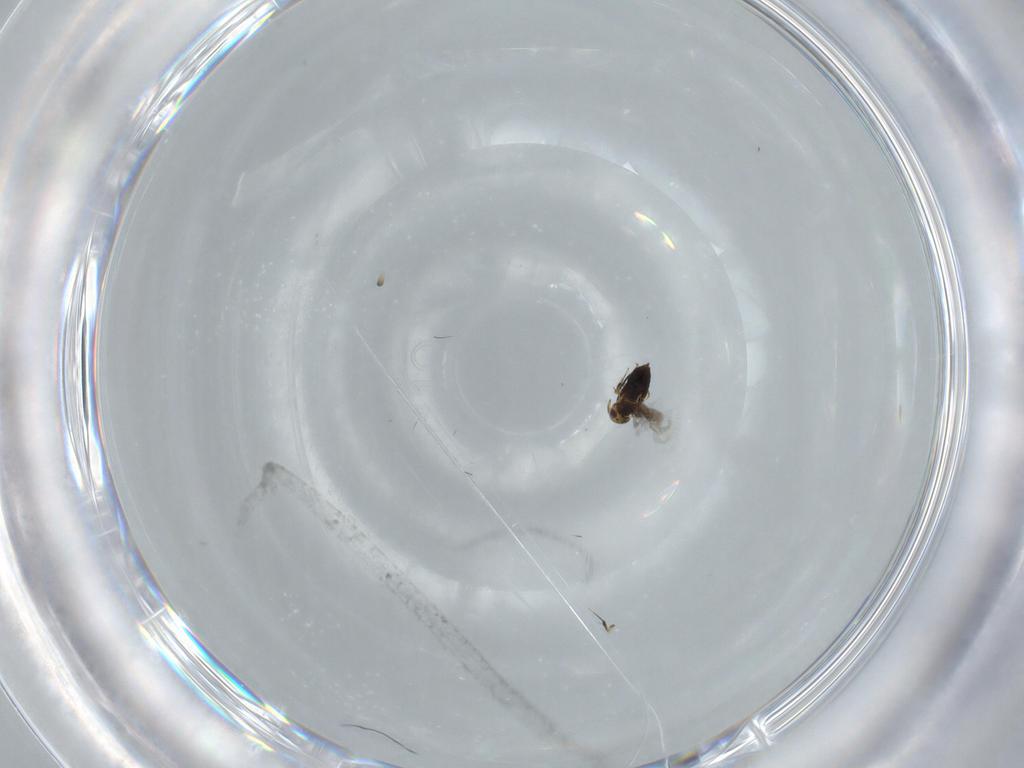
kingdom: Animalia
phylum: Arthropoda
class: Insecta
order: Hymenoptera
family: Scelionidae
